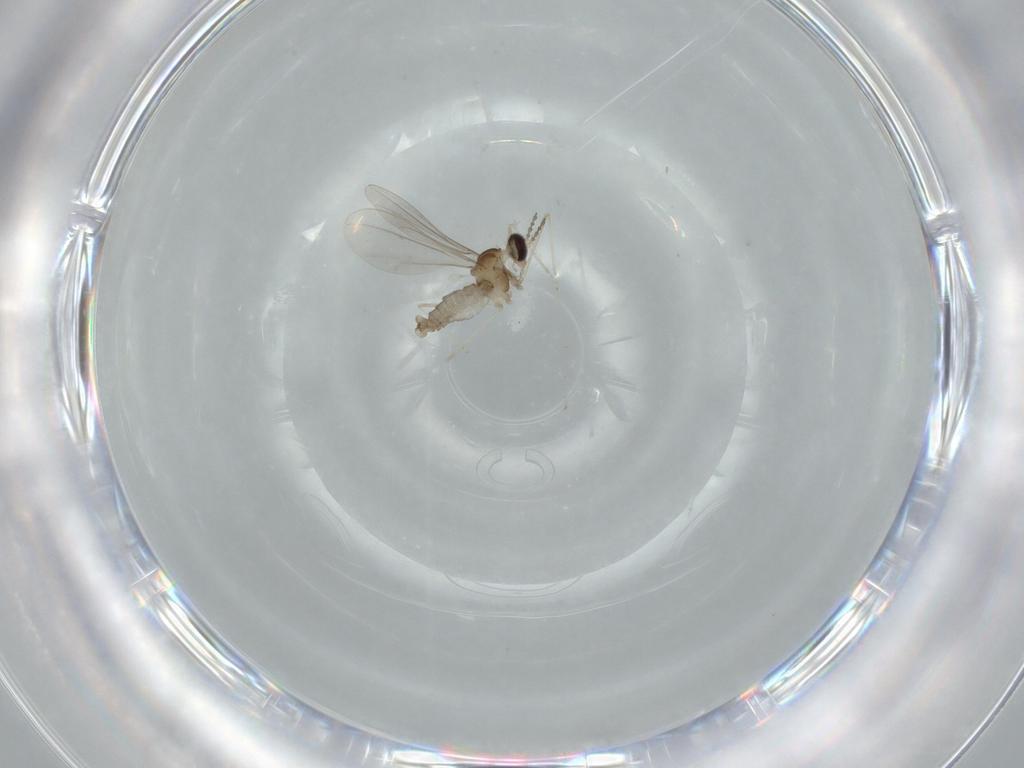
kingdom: Animalia
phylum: Arthropoda
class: Insecta
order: Diptera
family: Cecidomyiidae
